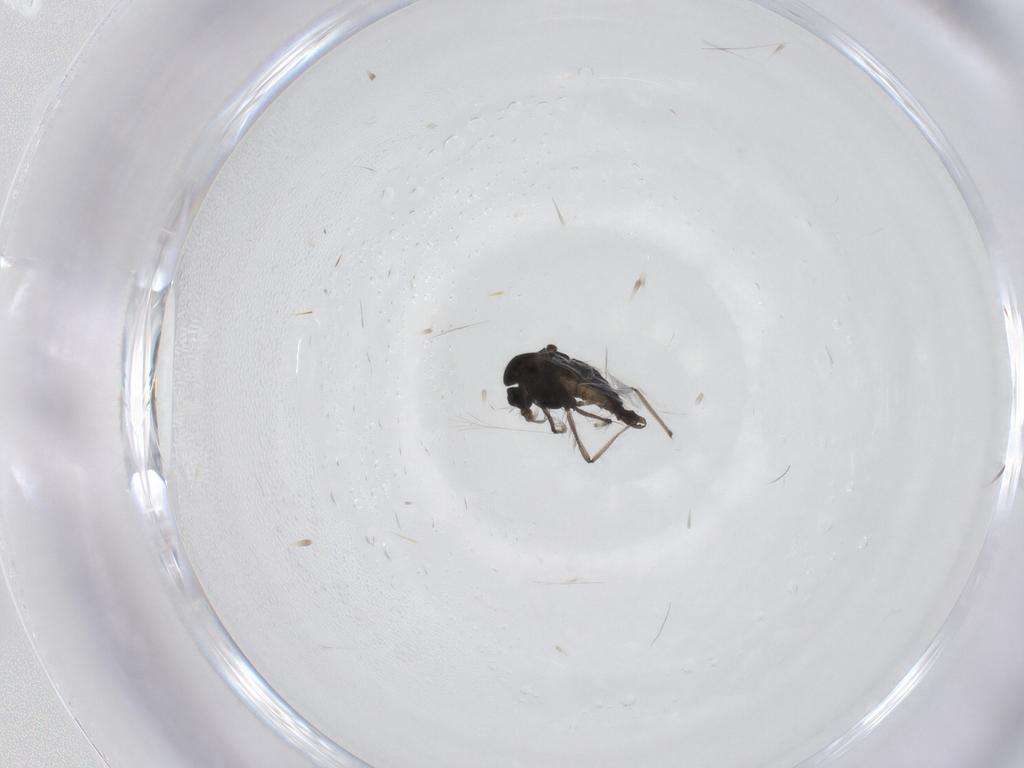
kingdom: Animalia
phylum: Arthropoda
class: Insecta
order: Diptera
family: Chironomidae
